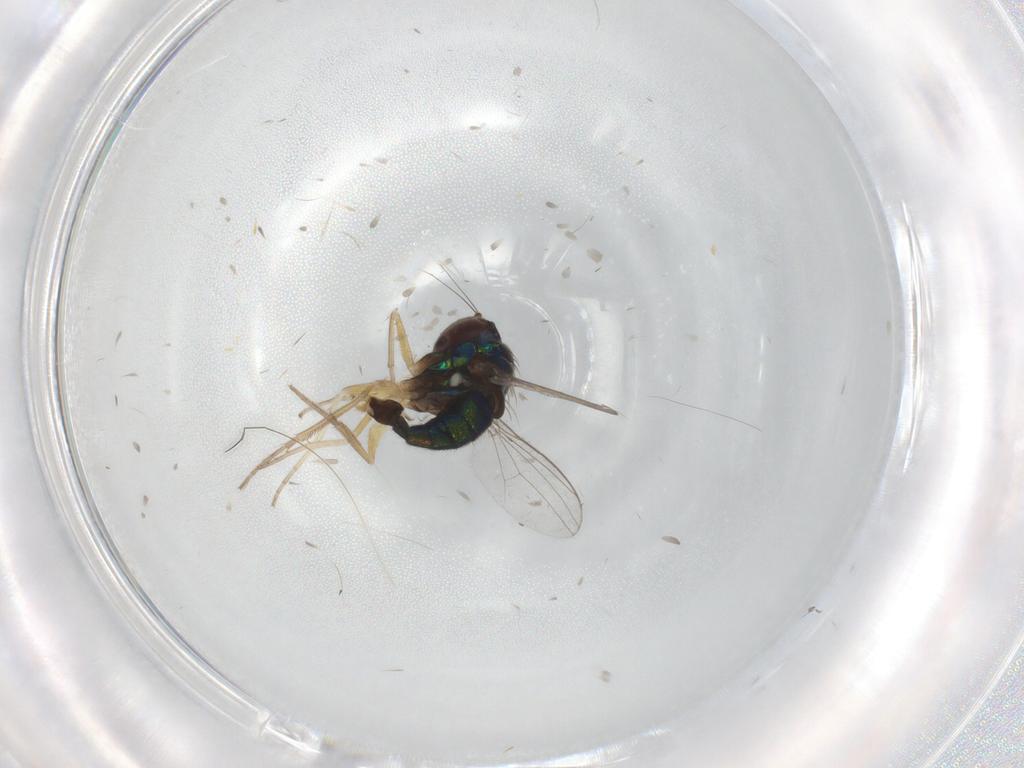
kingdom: Animalia
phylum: Arthropoda
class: Insecta
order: Diptera
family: Dolichopodidae
